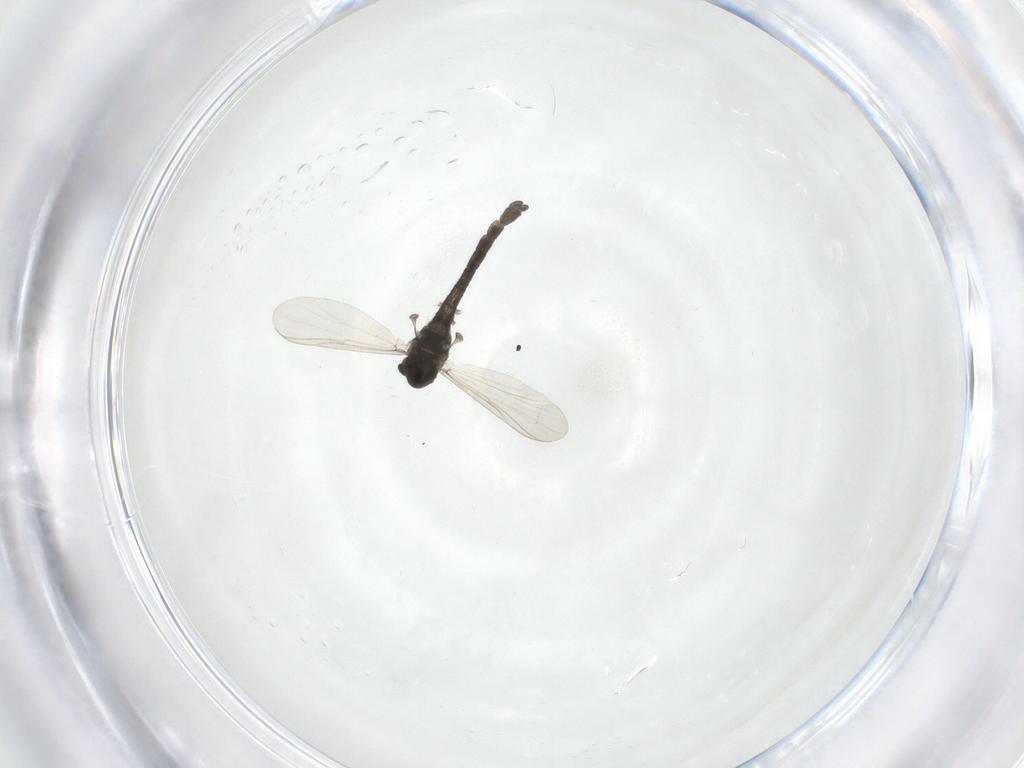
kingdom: Animalia
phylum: Arthropoda
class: Insecta
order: Diptera
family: Chironomidae
